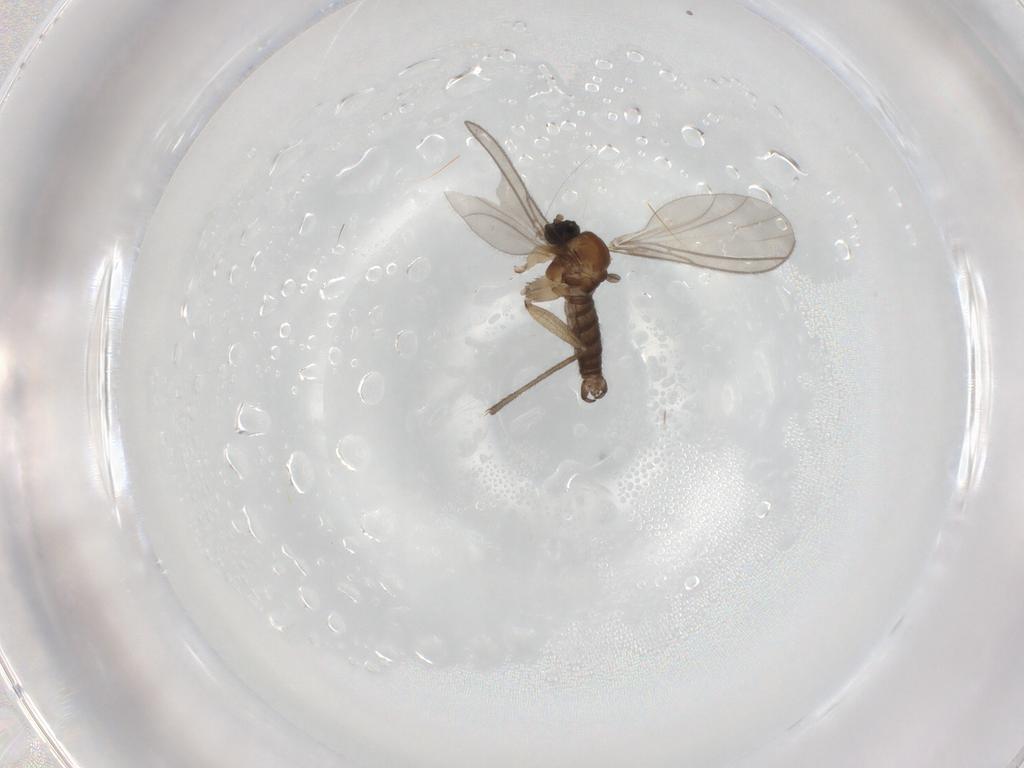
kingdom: Animalia
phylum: Arthropoda
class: Insecta
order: Diptera
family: Sciaridae
